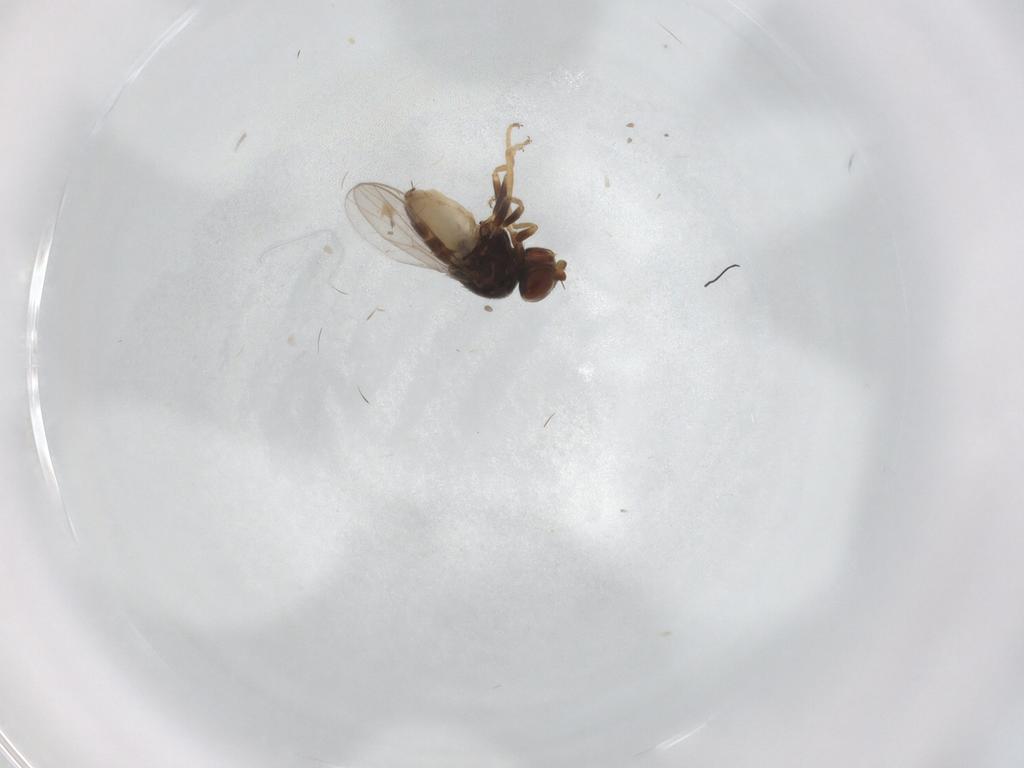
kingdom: Animalia
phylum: Arthropoda
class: Insecta
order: Diptera
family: Chloropidae
